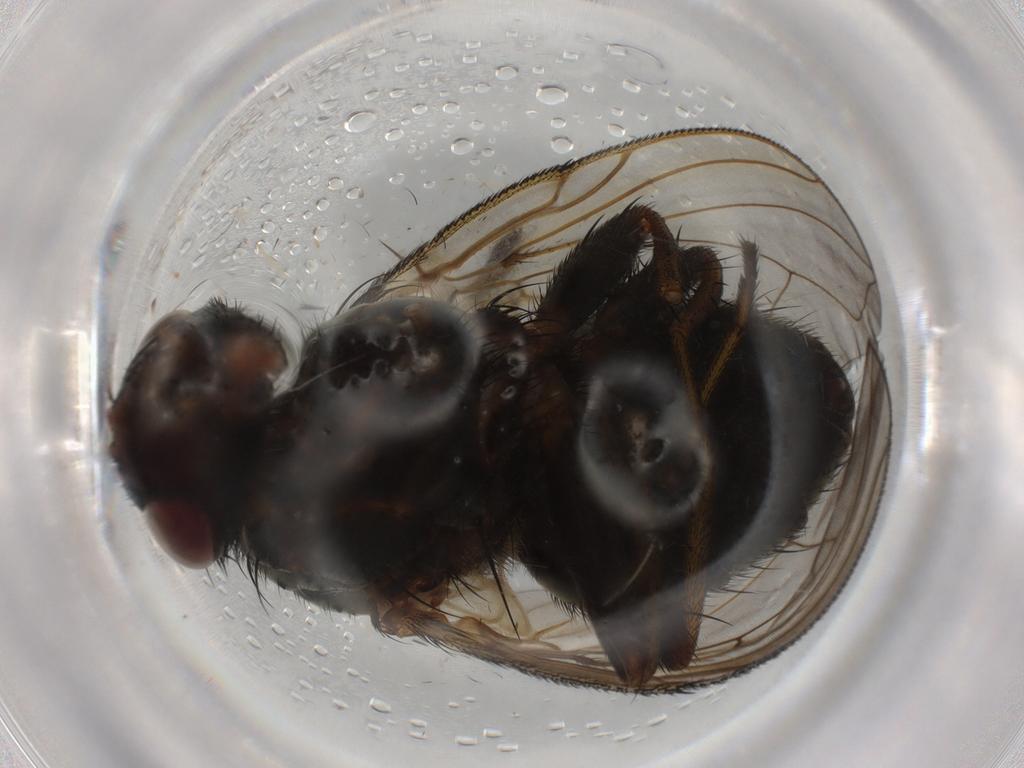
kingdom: Animalia
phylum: Arthropoda
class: Insecta
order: Diptera
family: Calliphoridae
